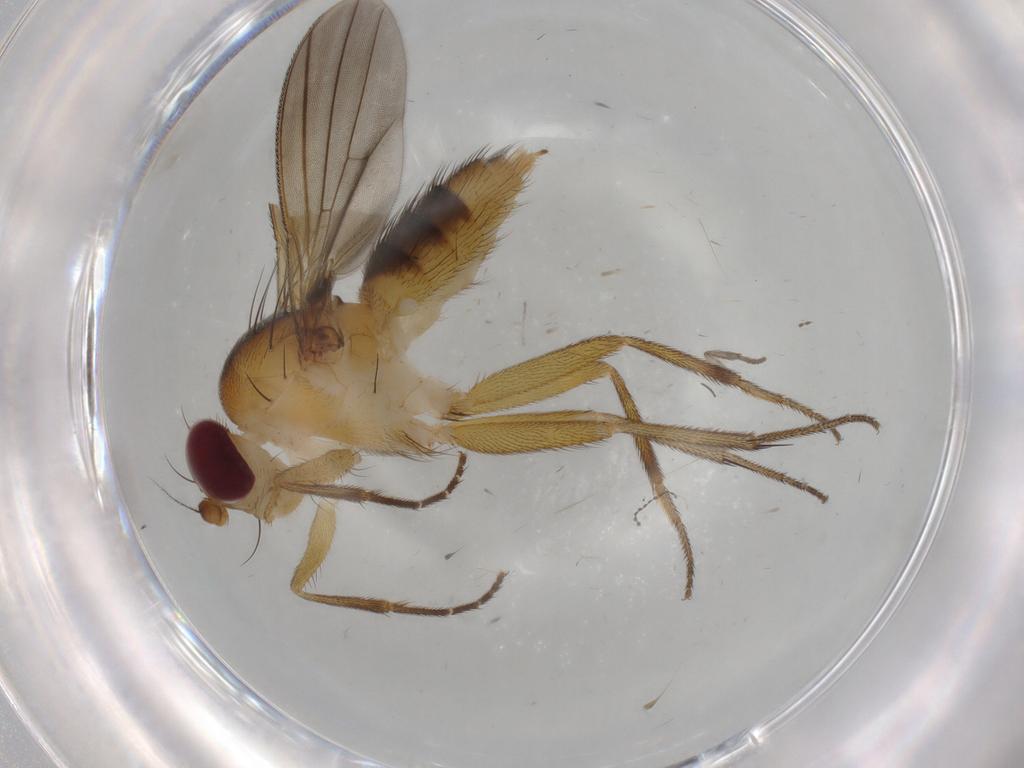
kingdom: Animalia
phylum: Arthropoda
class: Insecta
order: Diptera
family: Clusiidae
